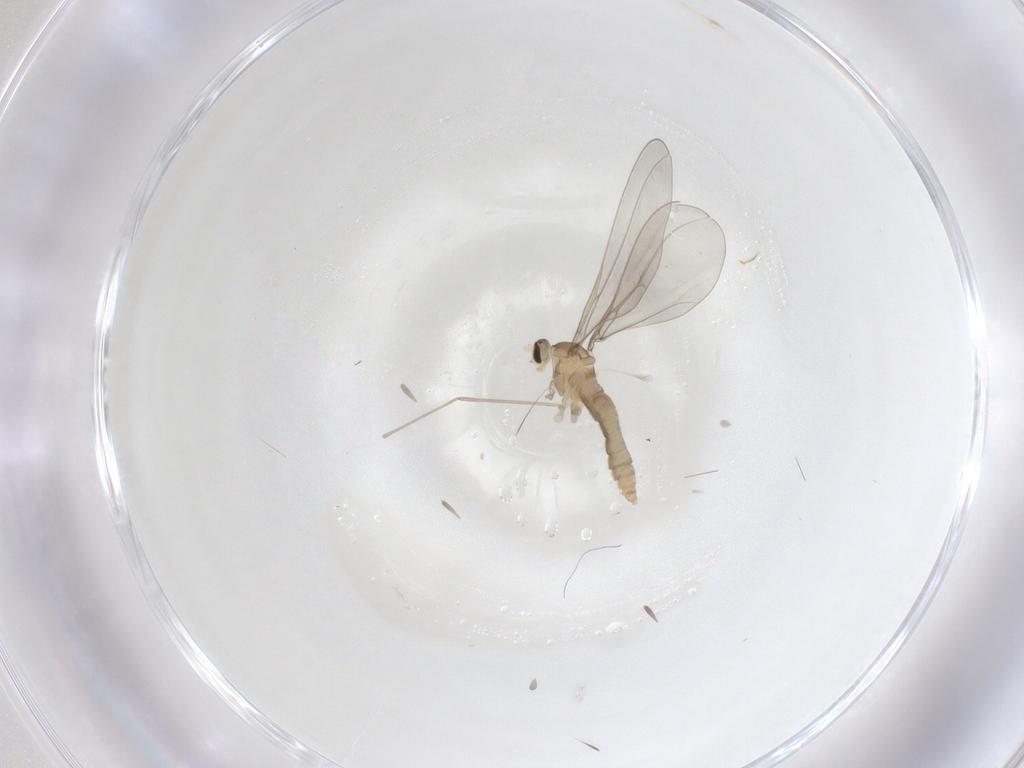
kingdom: Animalia
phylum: Arthropoda
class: Insecta
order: Diptera
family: Cecidomyiidae
